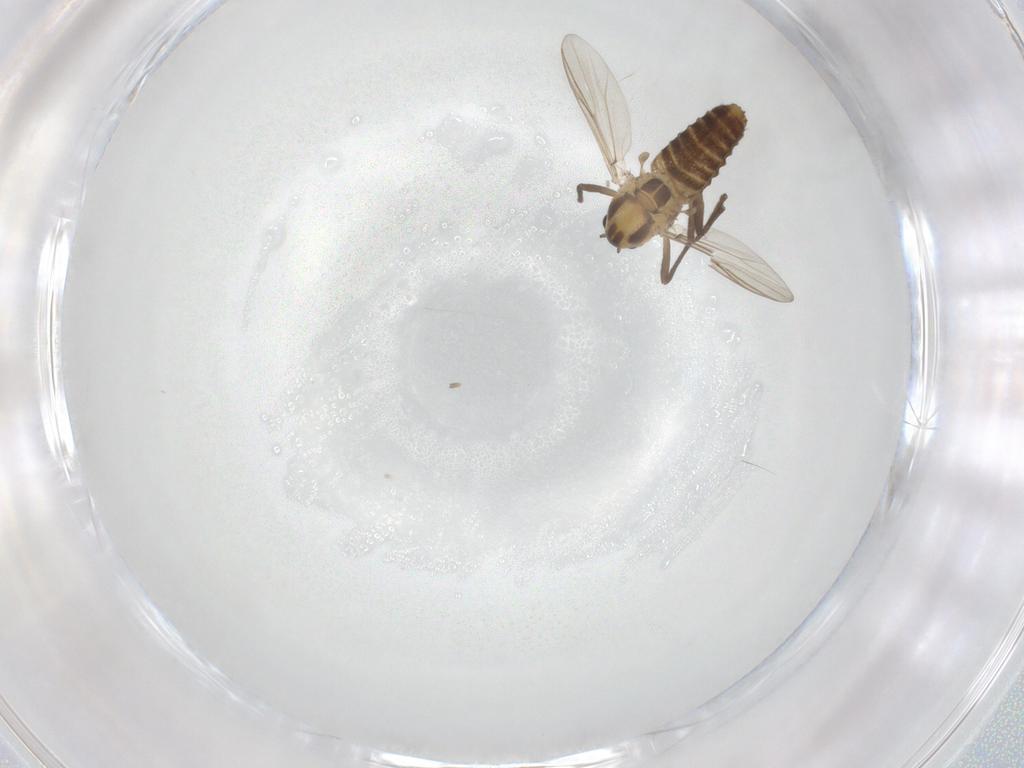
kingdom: Animalia
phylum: Arthropoda
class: Insecta
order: Diptera
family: Chironomidae
